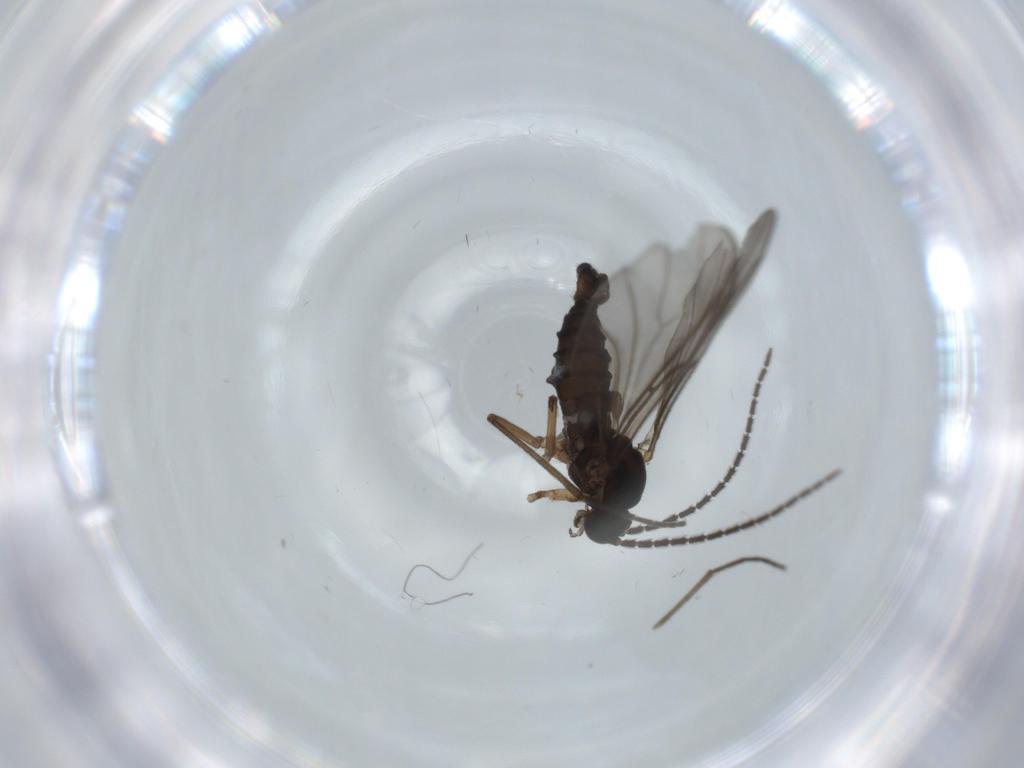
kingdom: Animalia
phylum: Arthropoda
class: Insecta
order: Diptera
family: Sciaridae
